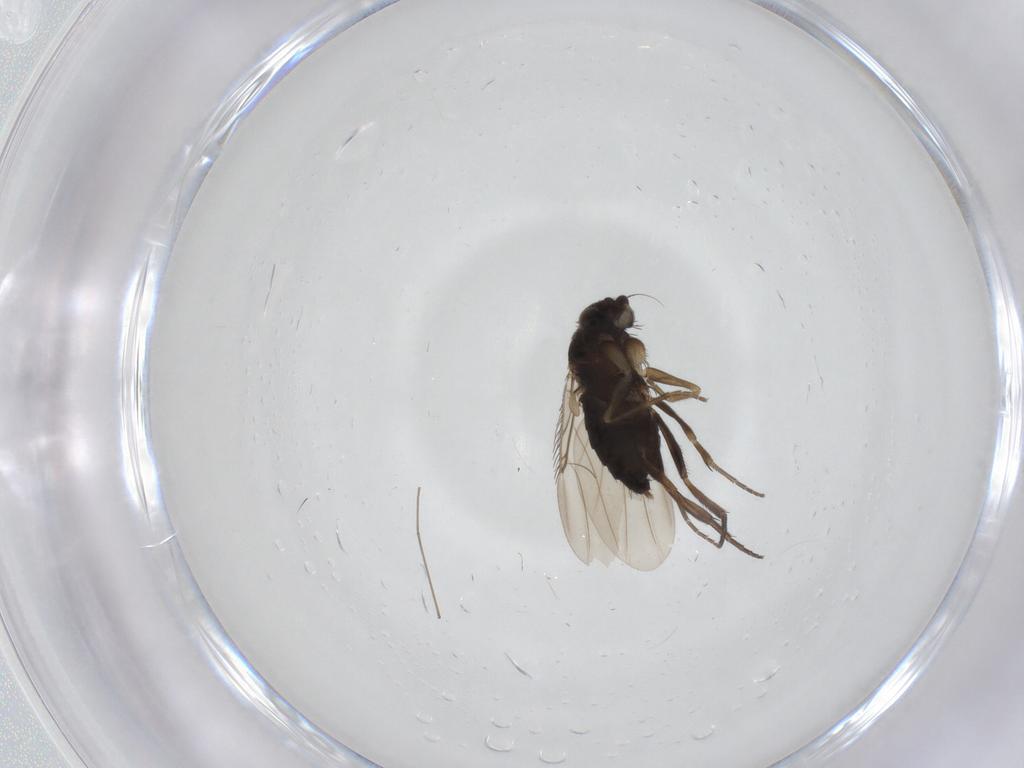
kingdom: Animalia
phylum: Arthropoda
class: Insecta
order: Diptera
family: Phoridae
